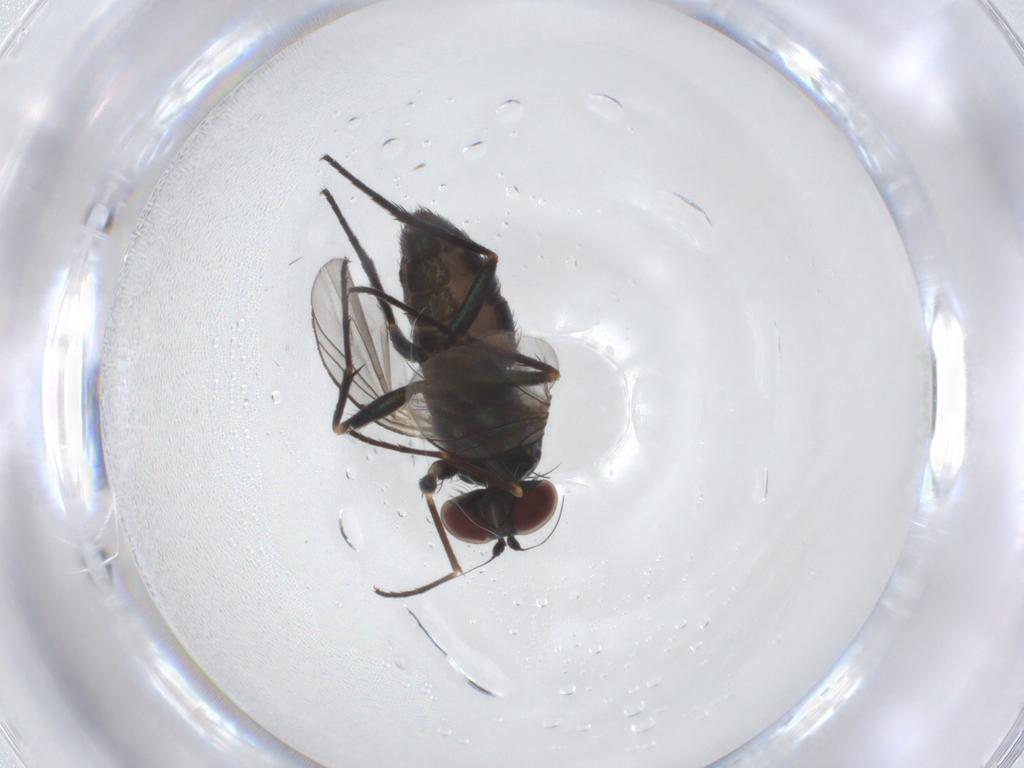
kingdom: Animalia
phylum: Arthropoda
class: Insecta
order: Diptera
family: Dolichopodidae
